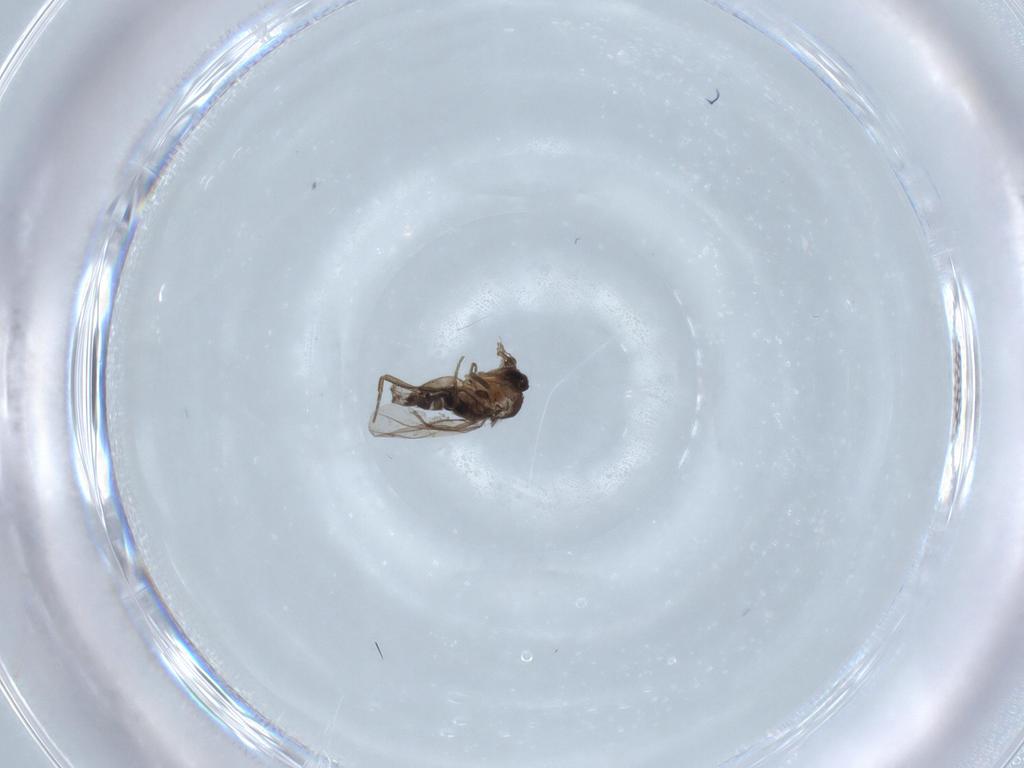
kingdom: Animalia
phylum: Arthropoda
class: Insecta
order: Diptera
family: Phoridae
